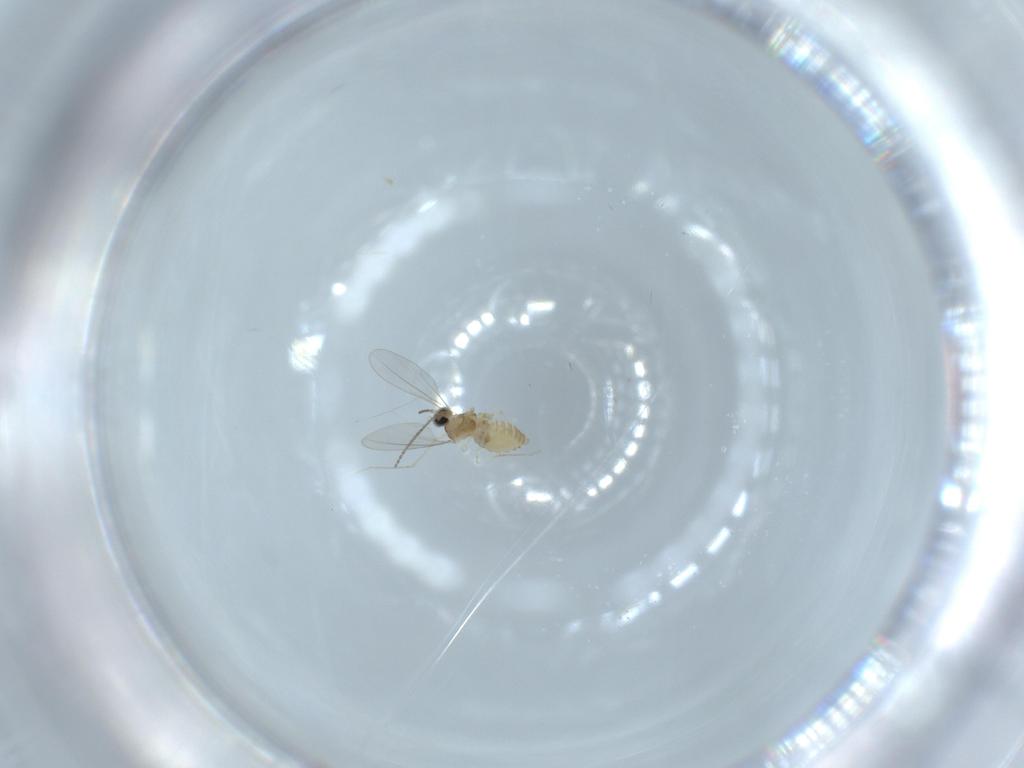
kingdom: Animalia
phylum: Arthropoda
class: Insecta
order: Diptera
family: Cecidomyiidae
